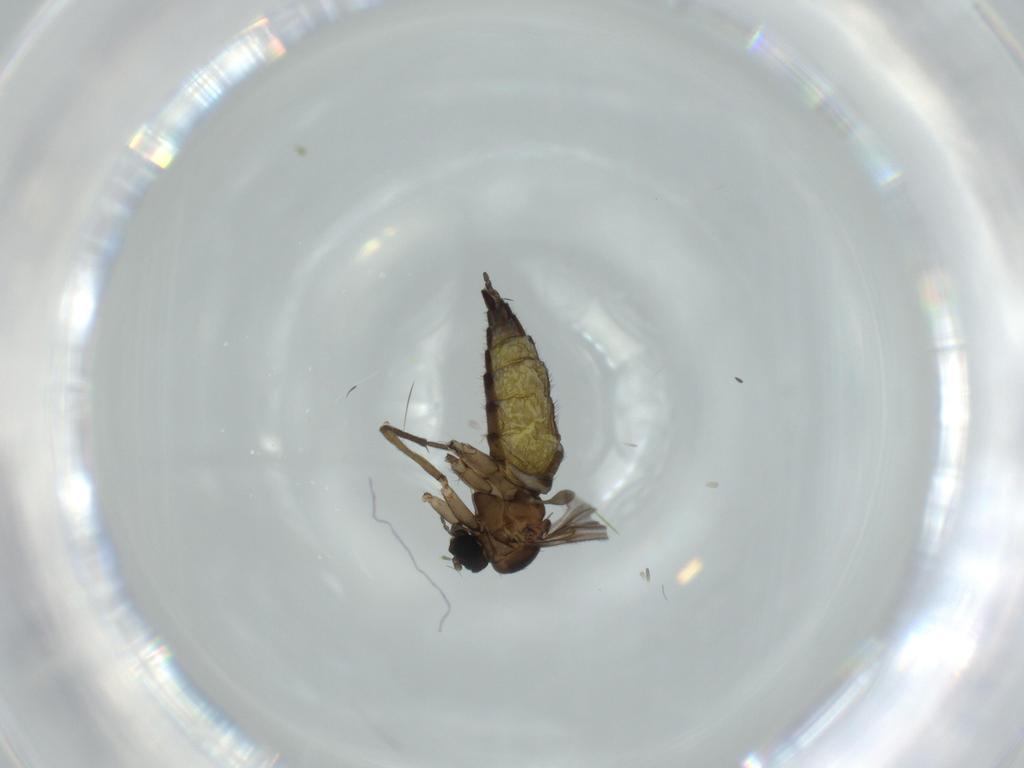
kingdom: Animalia
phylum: Arthropoda
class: Insecta
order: Diptera
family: Sciaridae
